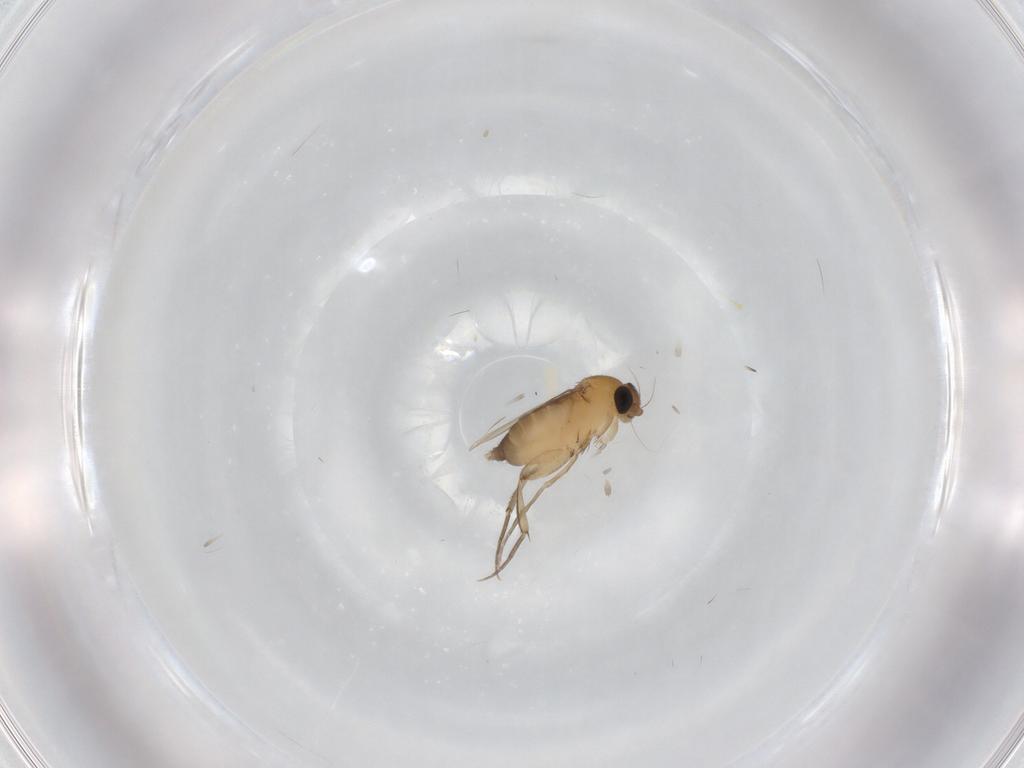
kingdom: Animalia
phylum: Arthropoda
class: Insecta
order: Diptera
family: Phoridae
